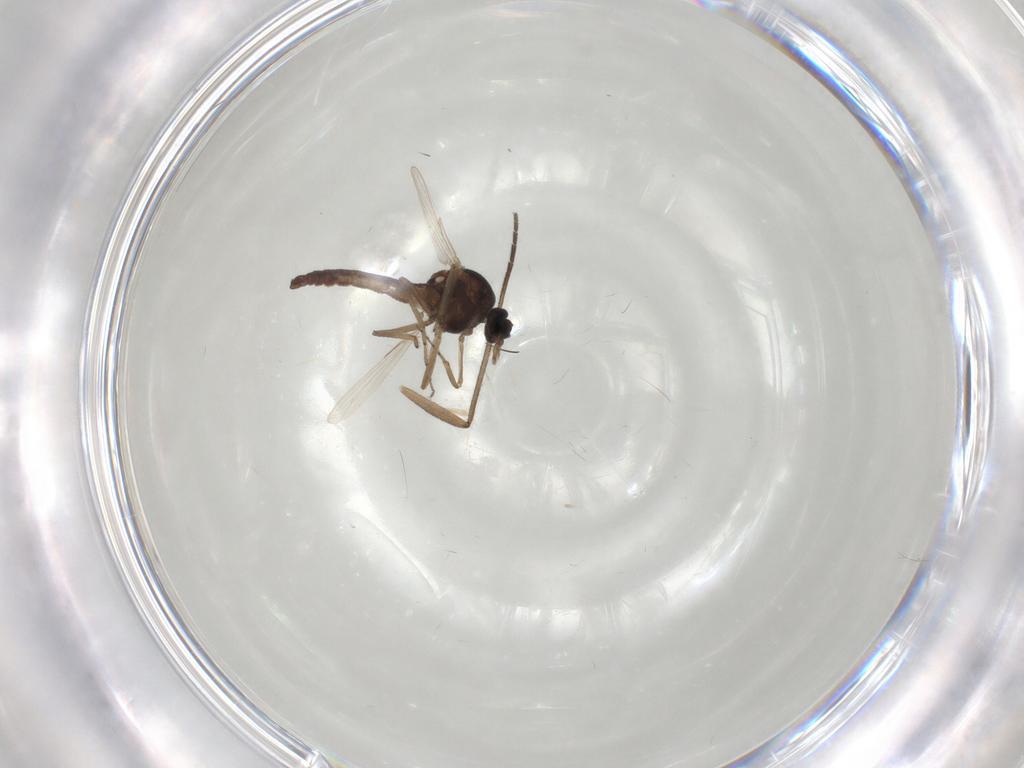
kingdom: Animalia
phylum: Arthropoda
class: Insecta
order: Diptera
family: Ceratopogonidae
